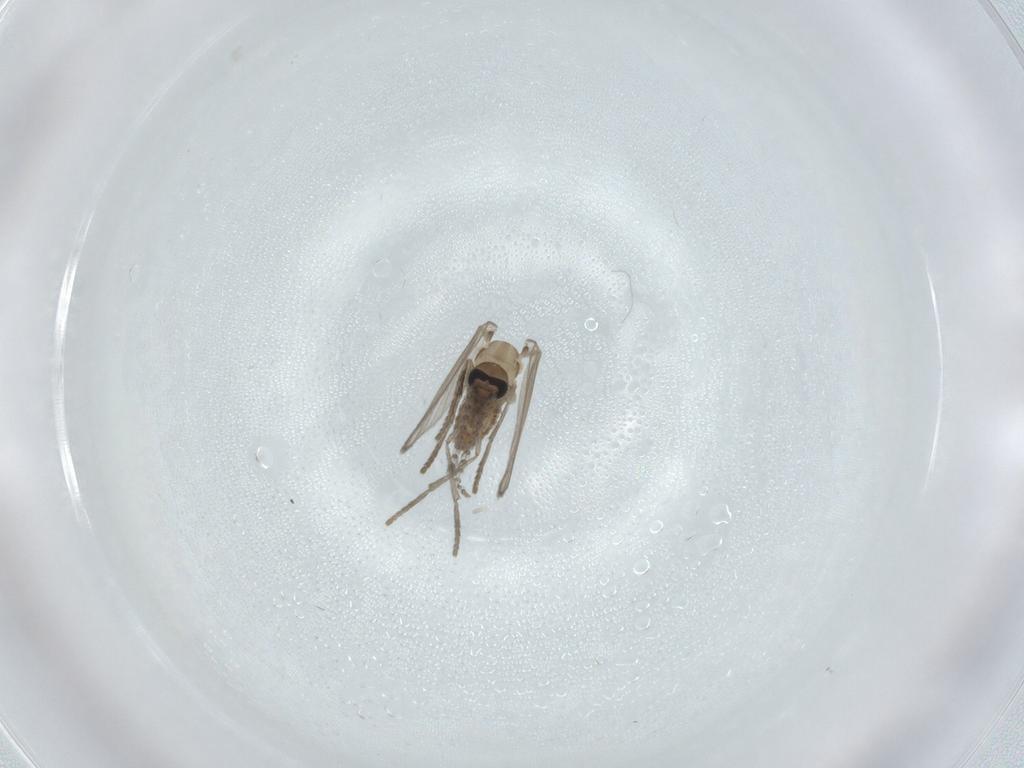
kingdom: Animalia
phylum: Arthropoda
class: Insecta
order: Diptera
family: Psychodidae
